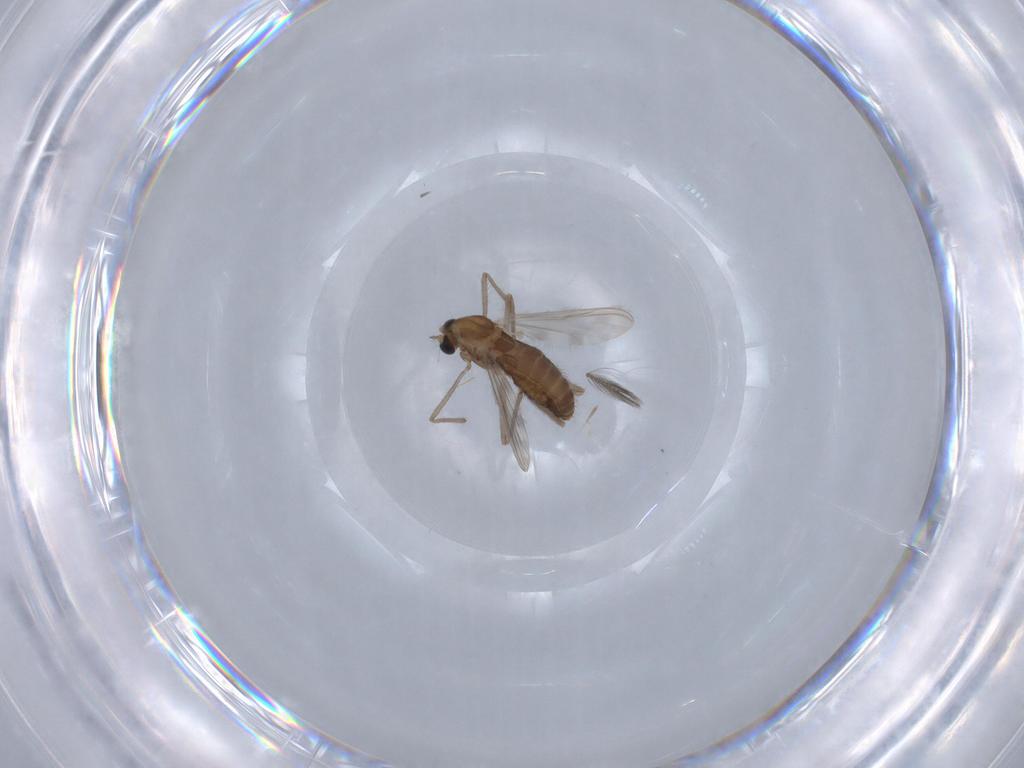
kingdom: Animalia
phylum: Arthropoda
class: Insecta
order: Diptera
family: Chironomidae
